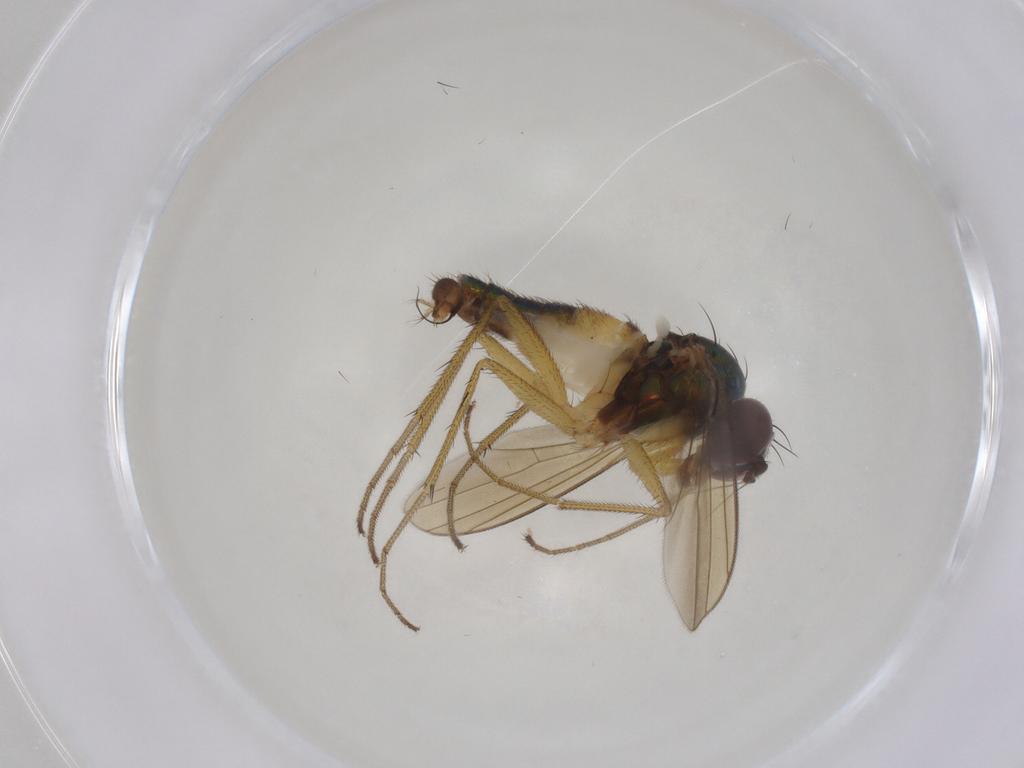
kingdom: Animalia
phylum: Arthropoda
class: Insecta
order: Diptera
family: Dolichopodidae
